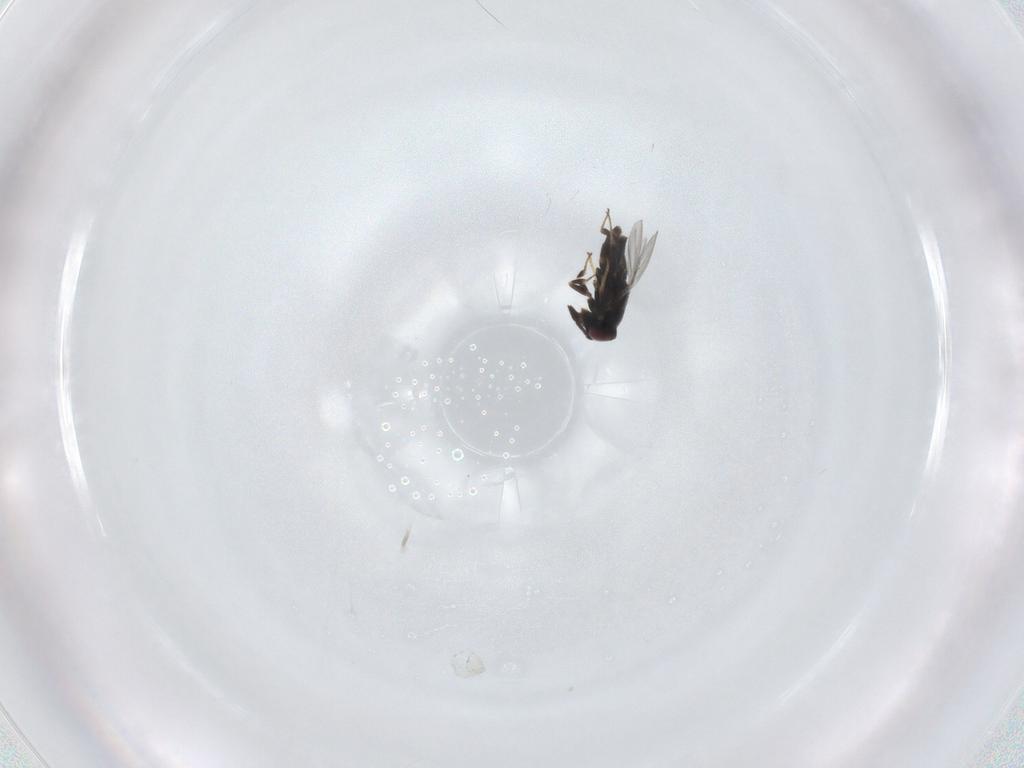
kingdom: Animalia
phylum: Arthropoda
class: Insecta
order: Hymenoptera
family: Encyrtidae
